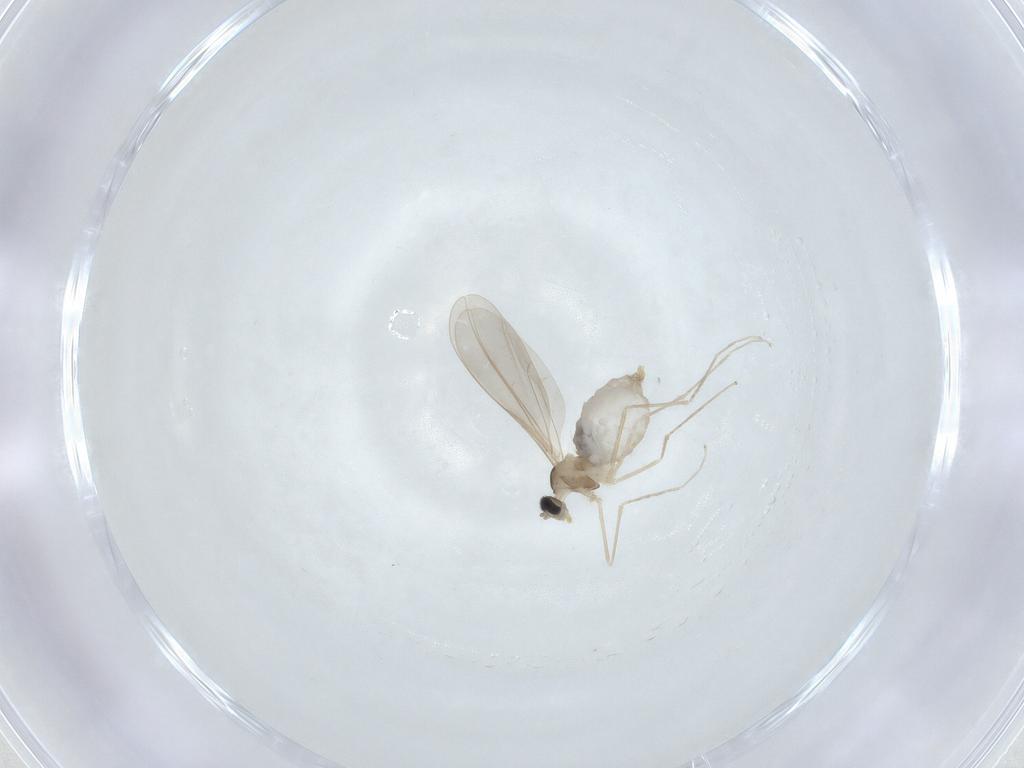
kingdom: Animalia
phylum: Arthropoda
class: Insecta
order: Diptera
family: Cecidomyiidae
